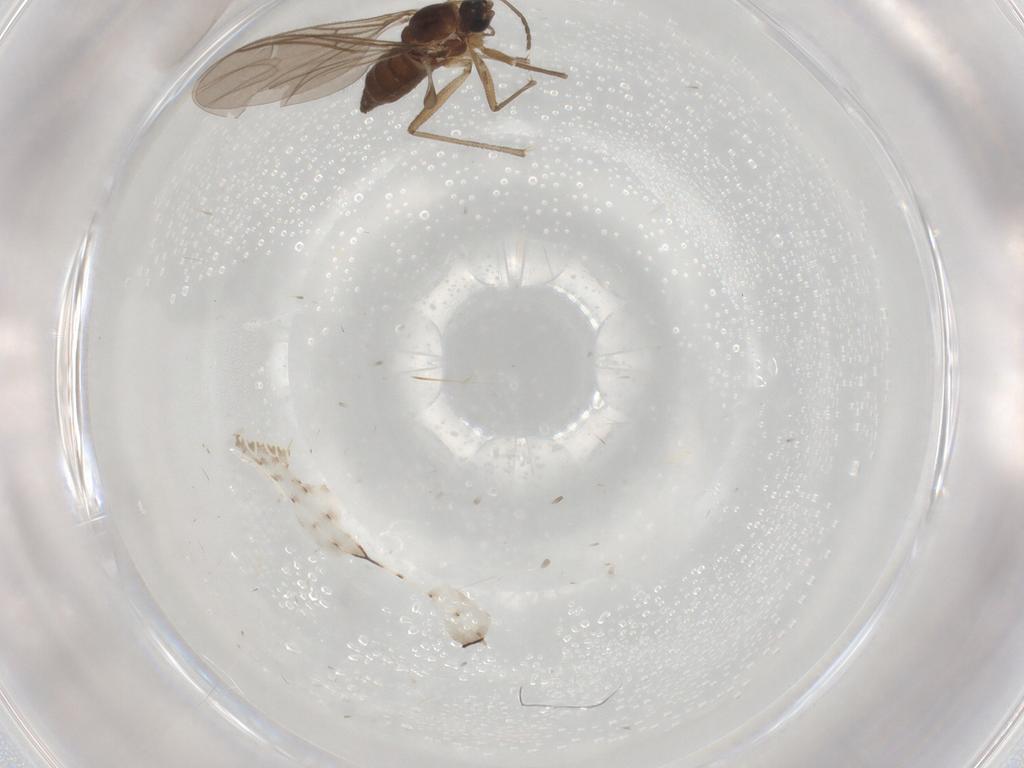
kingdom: Animalia
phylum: Arthropoda
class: Insecta
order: Diptera
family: Sciaridae
